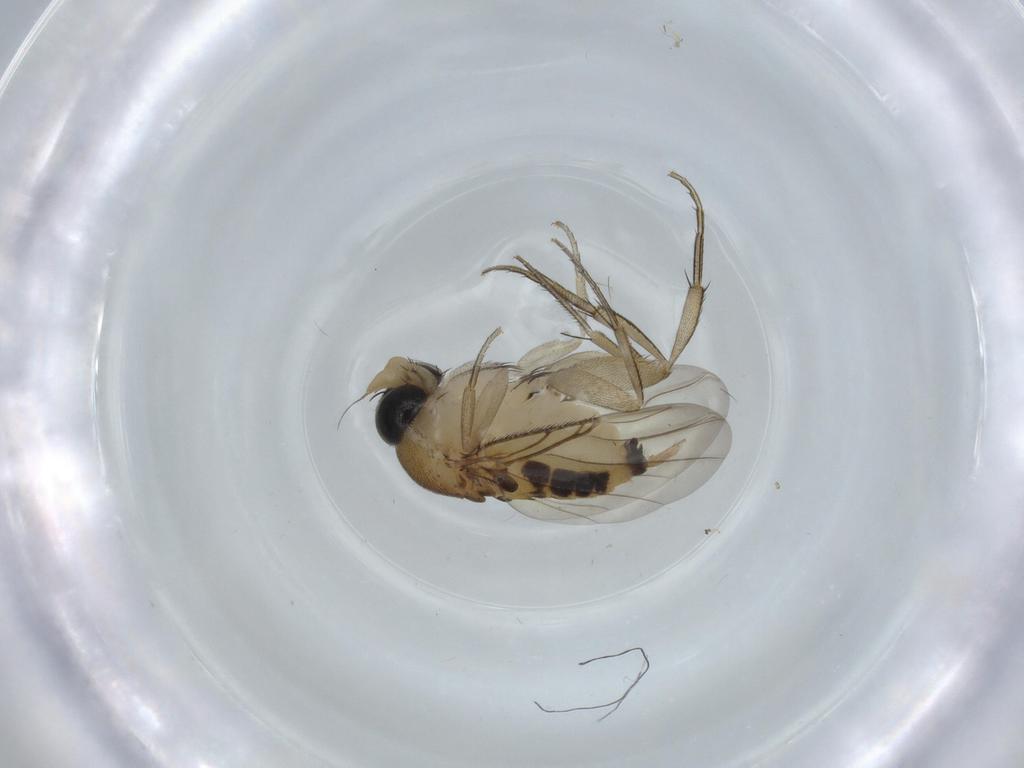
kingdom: Animalia
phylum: Arthropoda
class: Insecta
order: Diptera
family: Phoridae
